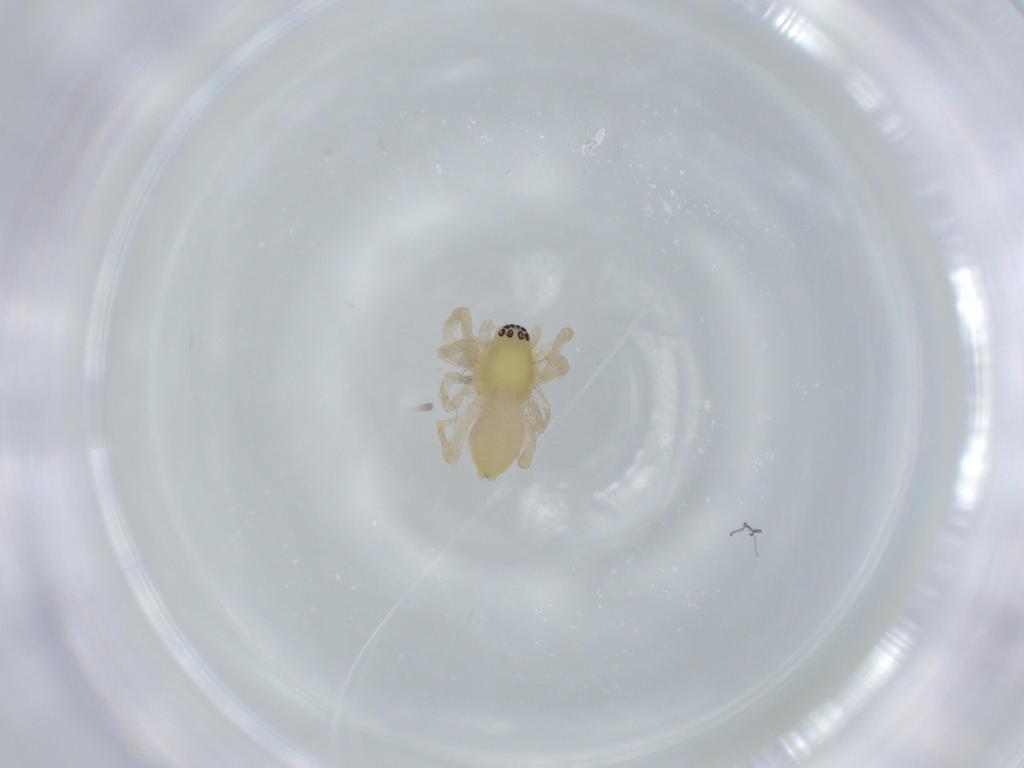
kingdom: Animalia
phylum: Arthropoda
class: Arachnida
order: Araneae
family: Anyphaenidae
